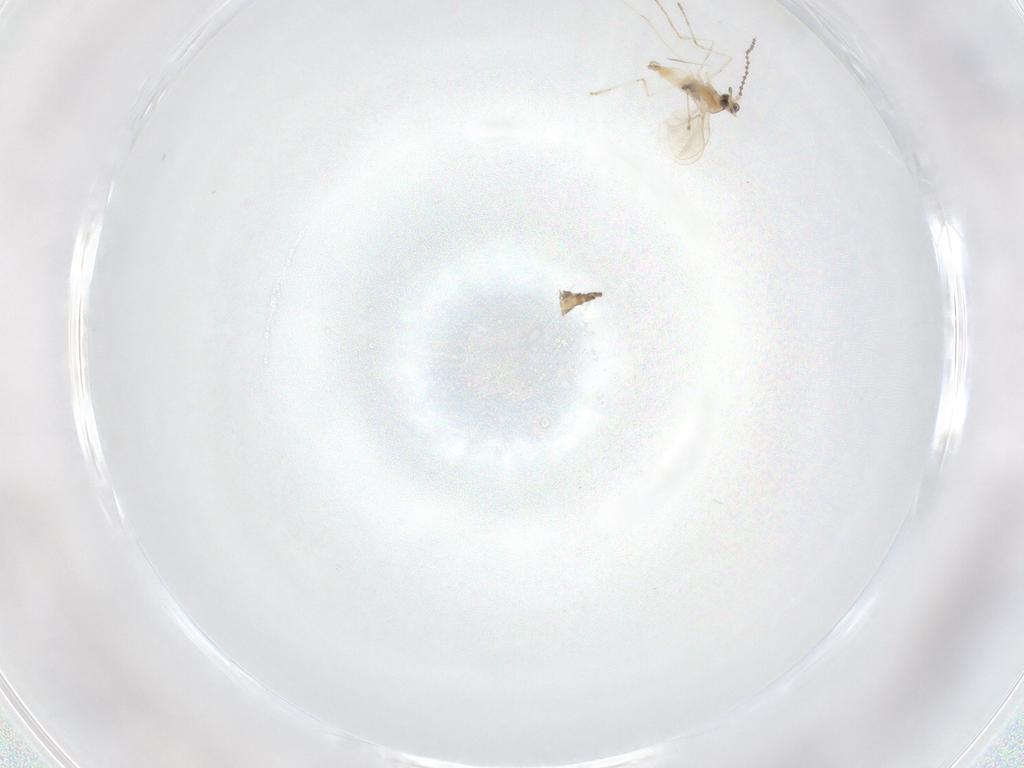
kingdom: Animalia
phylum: Arthropoda
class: Insecta
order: Diptera
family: Cecidomyiidae
